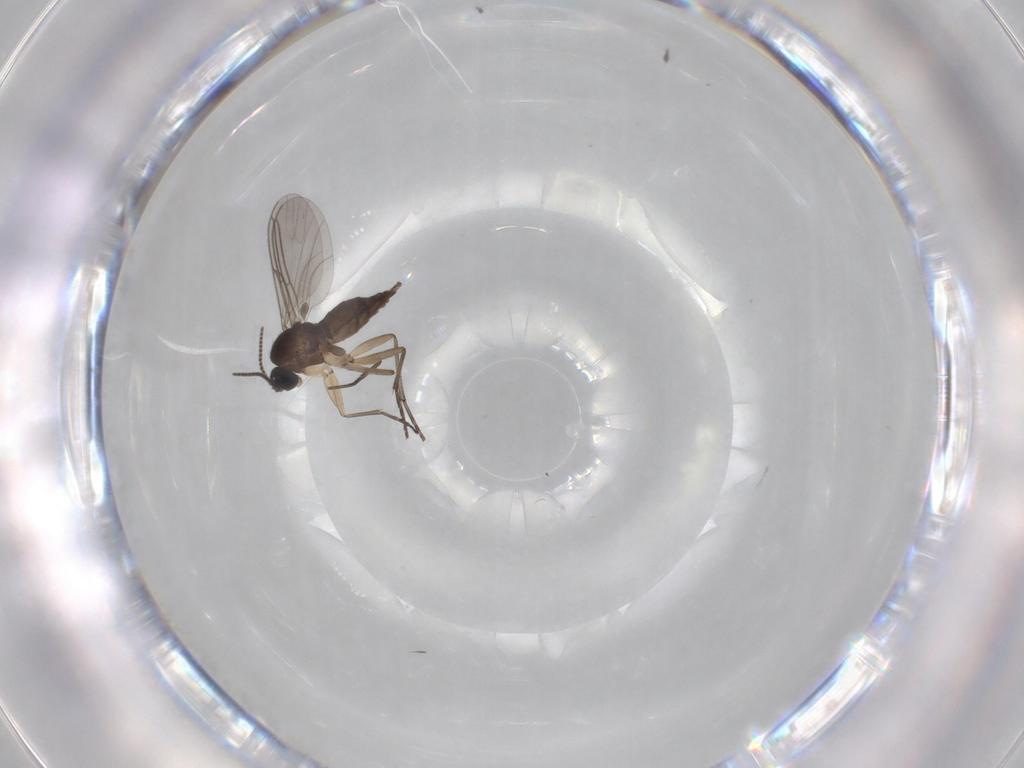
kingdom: Animalia
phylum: Arthropoda
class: Insecta
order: Diptera
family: Sciaridae
